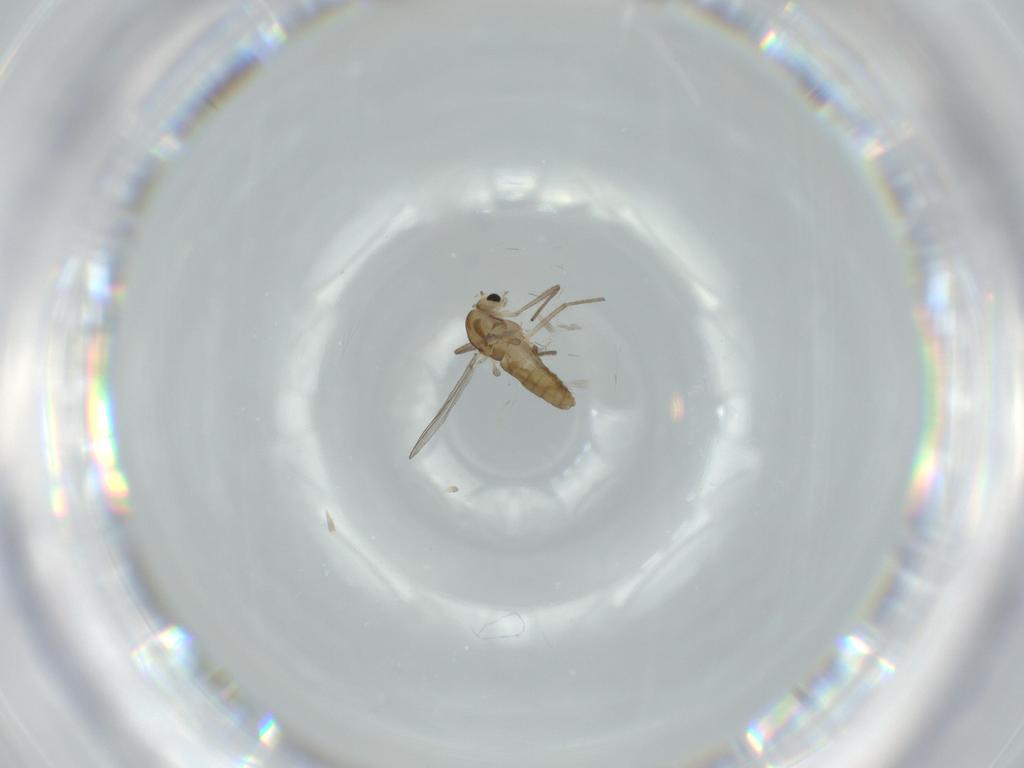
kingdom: Animalia
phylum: Arthropoda
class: Insecta
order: Diptera
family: Chironomidae
